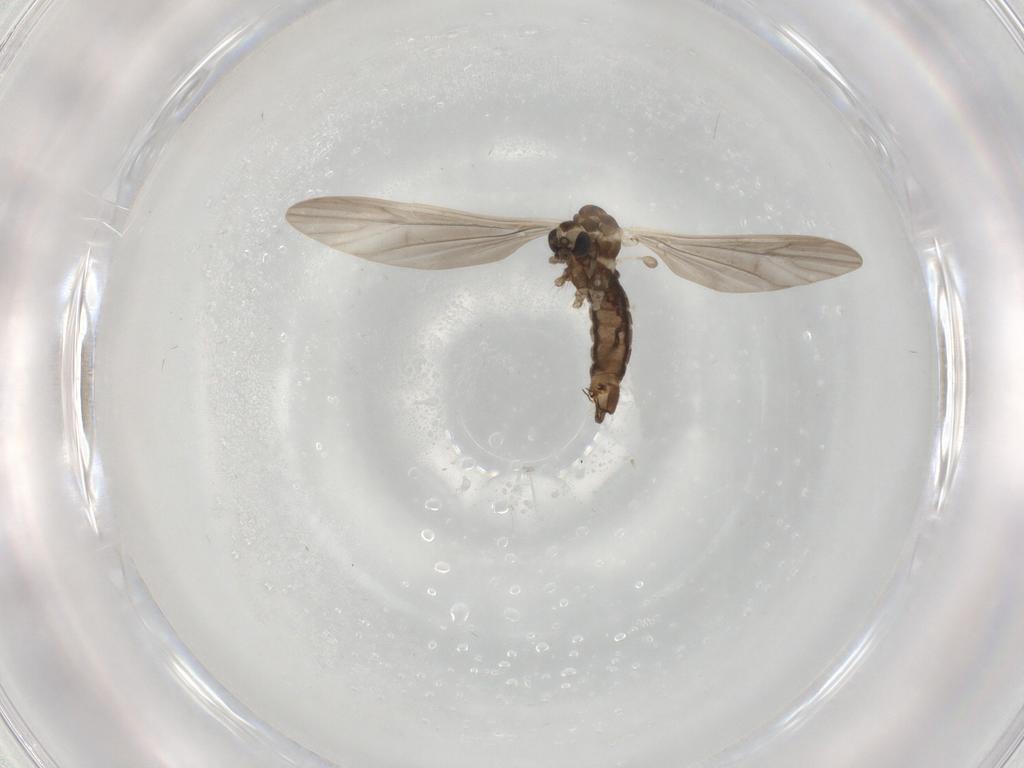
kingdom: Animalia
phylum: Arthropoda
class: Insecta
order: Diptera
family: Limoniidae
